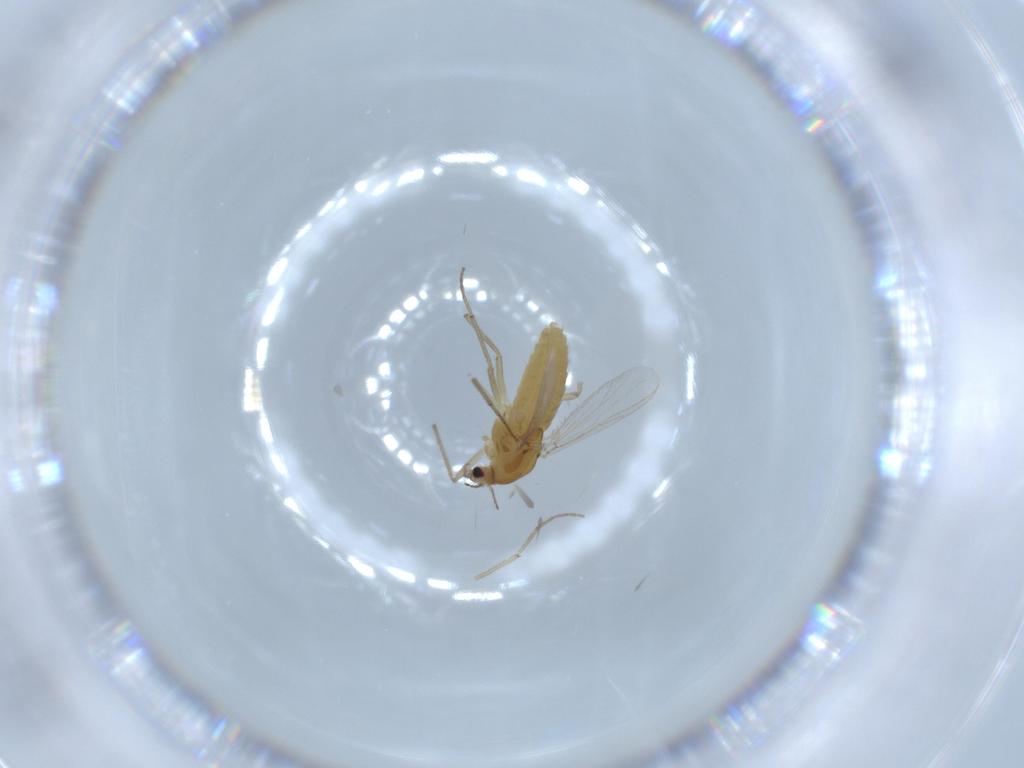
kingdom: Animalia
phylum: Arthropoda
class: Insecta
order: Diptera
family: Chironomidae
